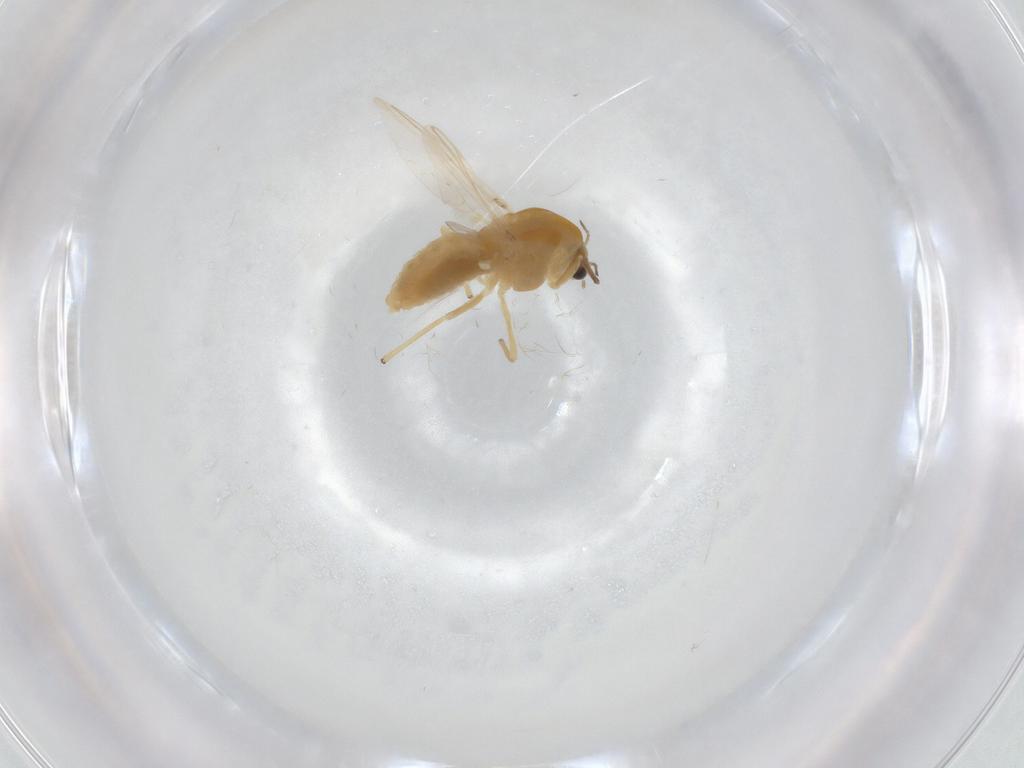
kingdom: Animalia
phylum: Arthropoda
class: Insecta
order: Diptera
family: Chironomidae
